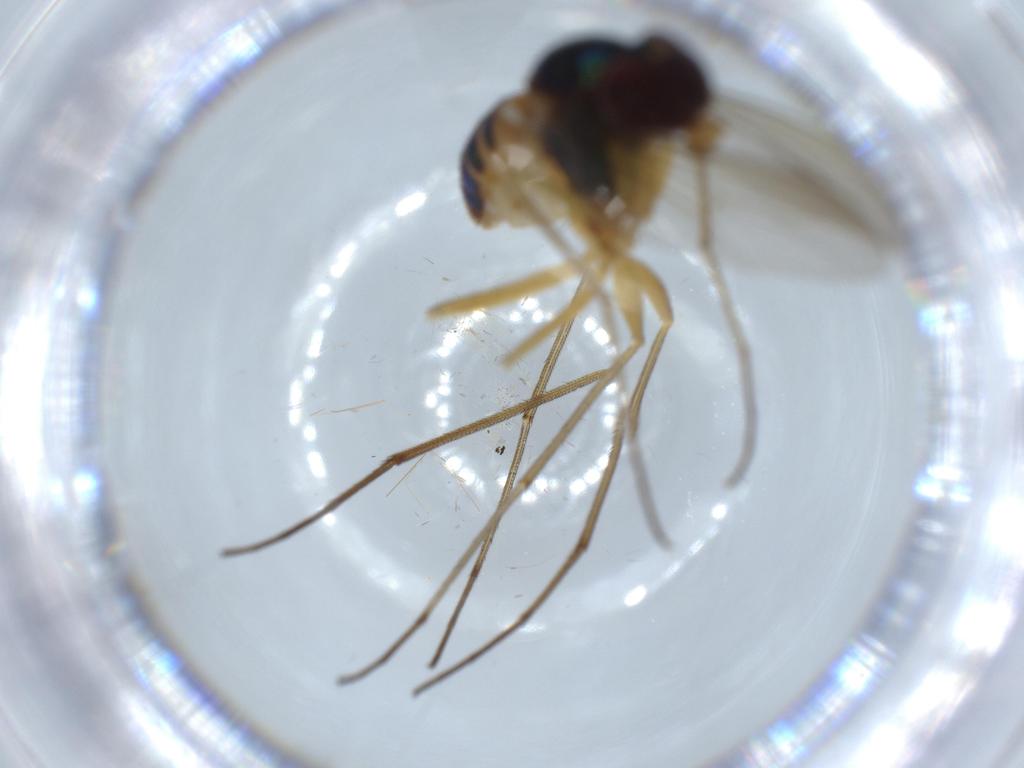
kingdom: Animalia
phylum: Arthropoda
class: Insecta
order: Diptera
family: Dolichopodidae
